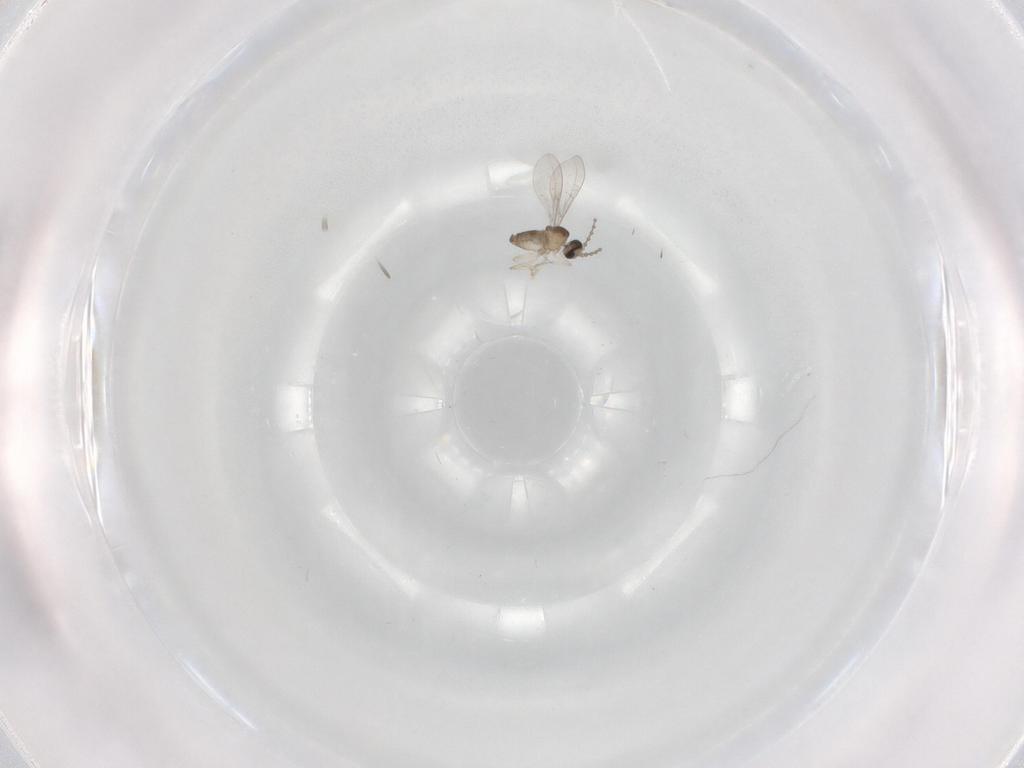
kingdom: Animalia
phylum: Arthropoda
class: Insecta
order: Diptera
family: Cecidomyiidae
